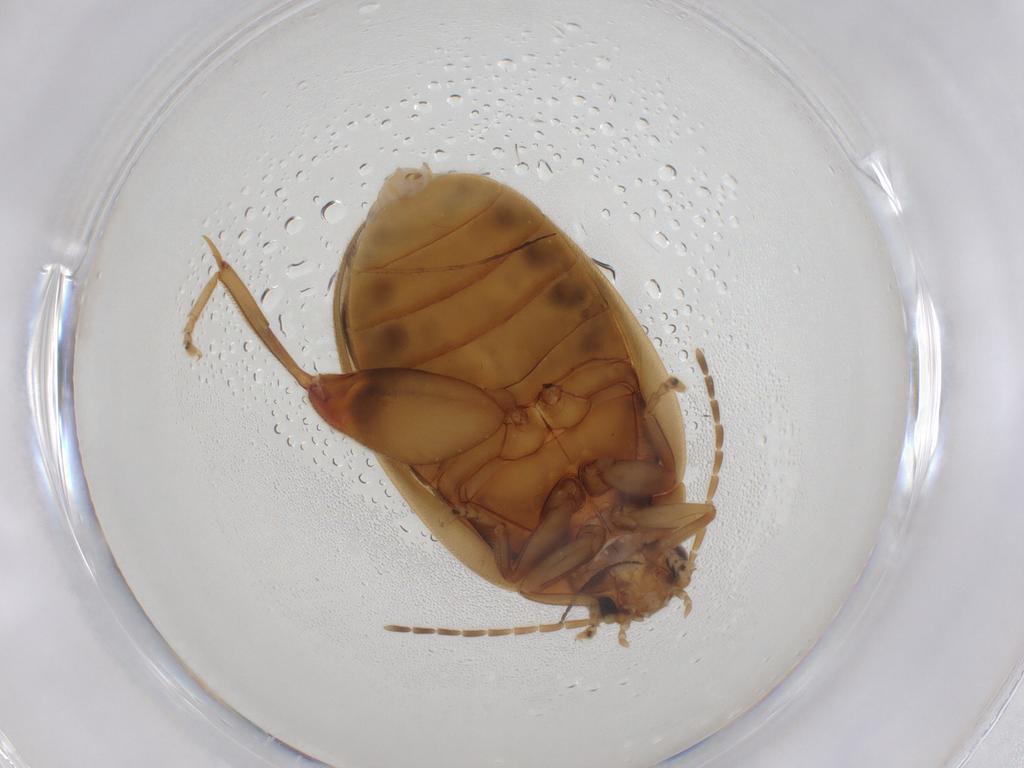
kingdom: Animalia
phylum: Arthropoda
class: Insecta
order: Coleoptera
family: Scirtidae
